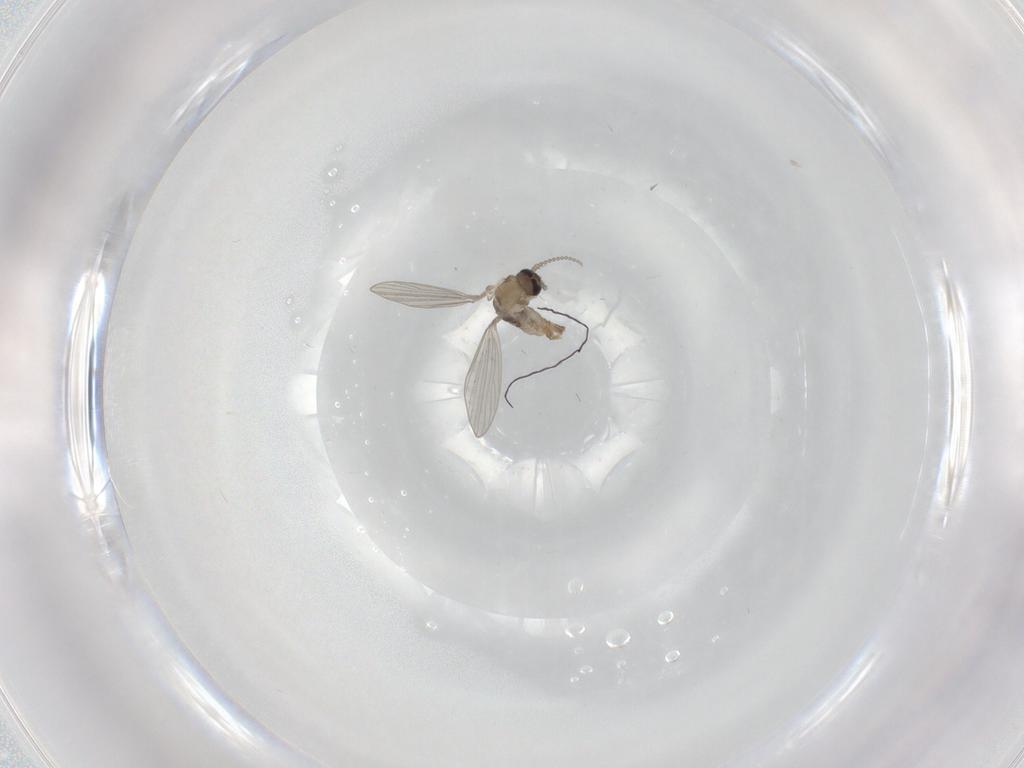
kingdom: Animalia
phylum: Arthropoda
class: Insecta
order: Diptera
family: Psychodidae
